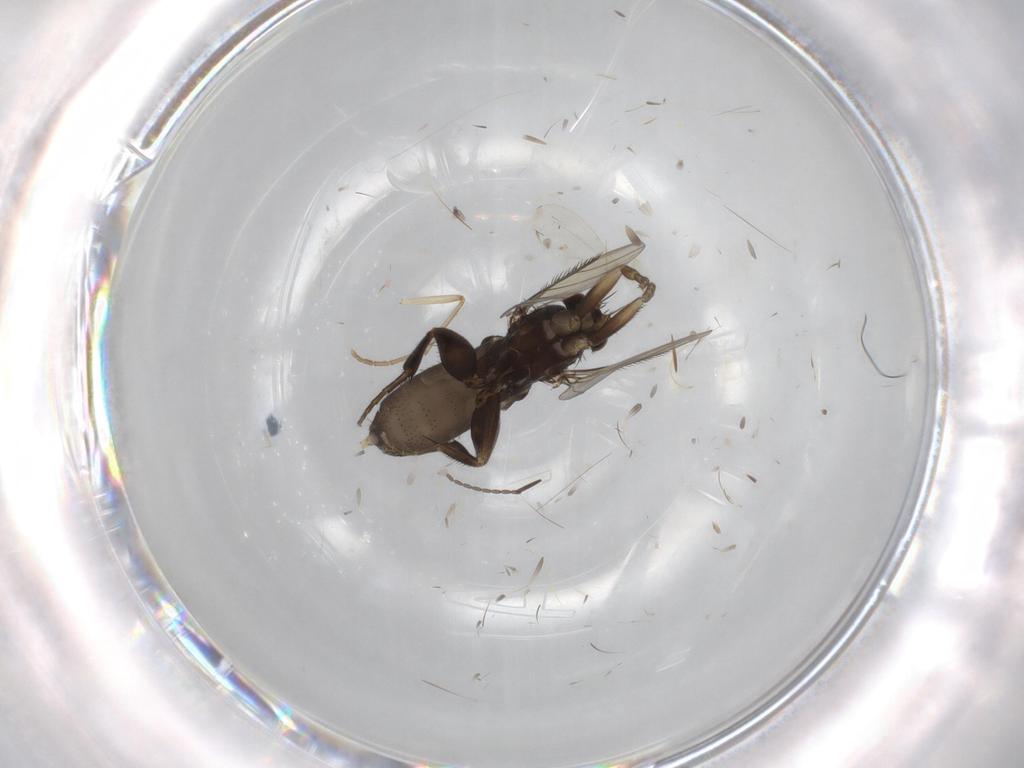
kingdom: Animalia
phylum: Arthropoda
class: Insecta
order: Diptera
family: Cecidomyiidae
